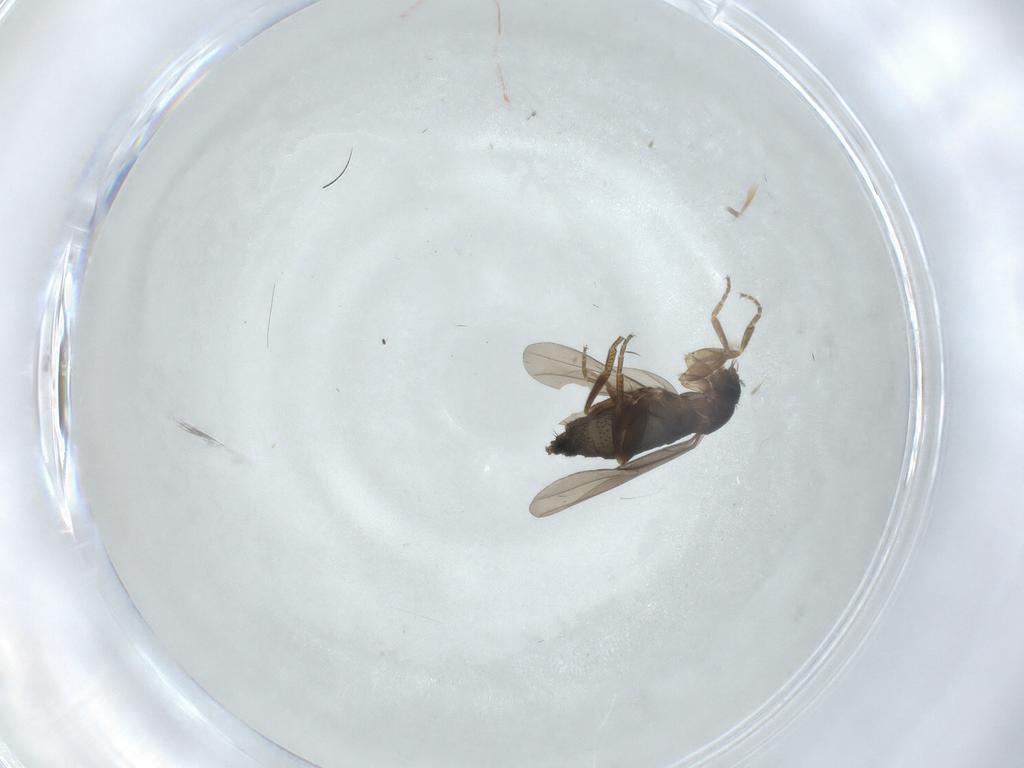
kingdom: Animalia
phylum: Arthropoda
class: Insecta
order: Diptera
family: Phoridae
